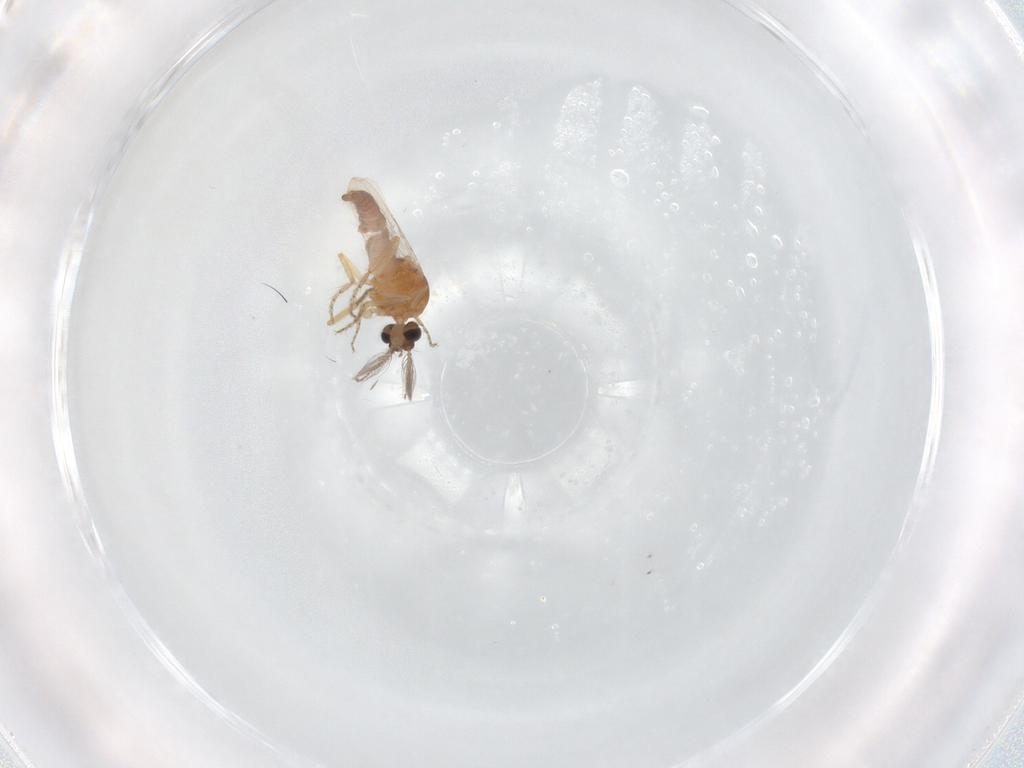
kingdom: Animalia
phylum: Arthropoda
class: Insecta
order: Diptera
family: Ceratopogonidae
